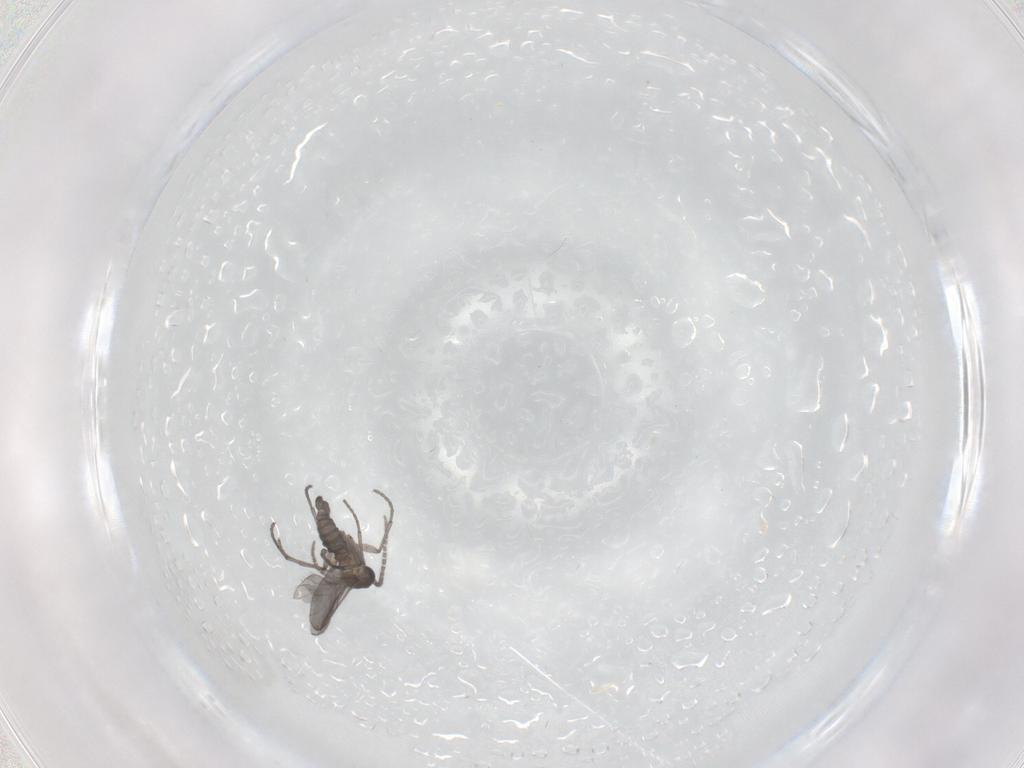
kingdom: Animalia
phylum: Arthropoda
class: Insecta
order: Diptera
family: Sciaridae
